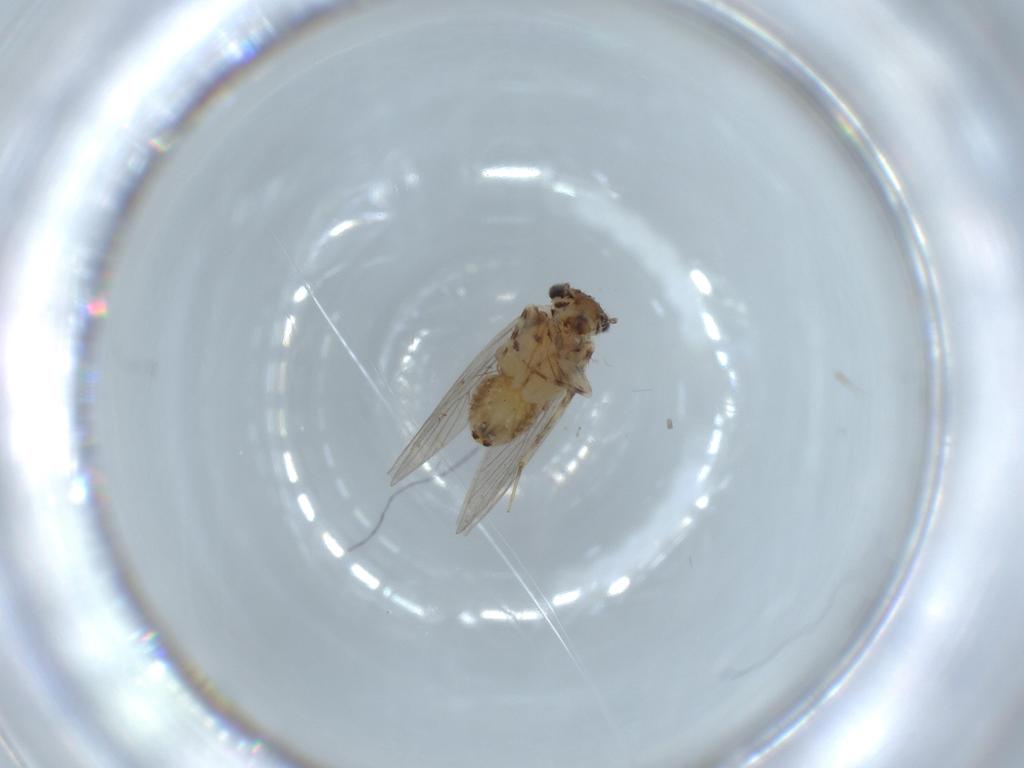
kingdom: Animalia
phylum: Arthropoda
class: Insecta
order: Psocodea
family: Lepidopsocidae
